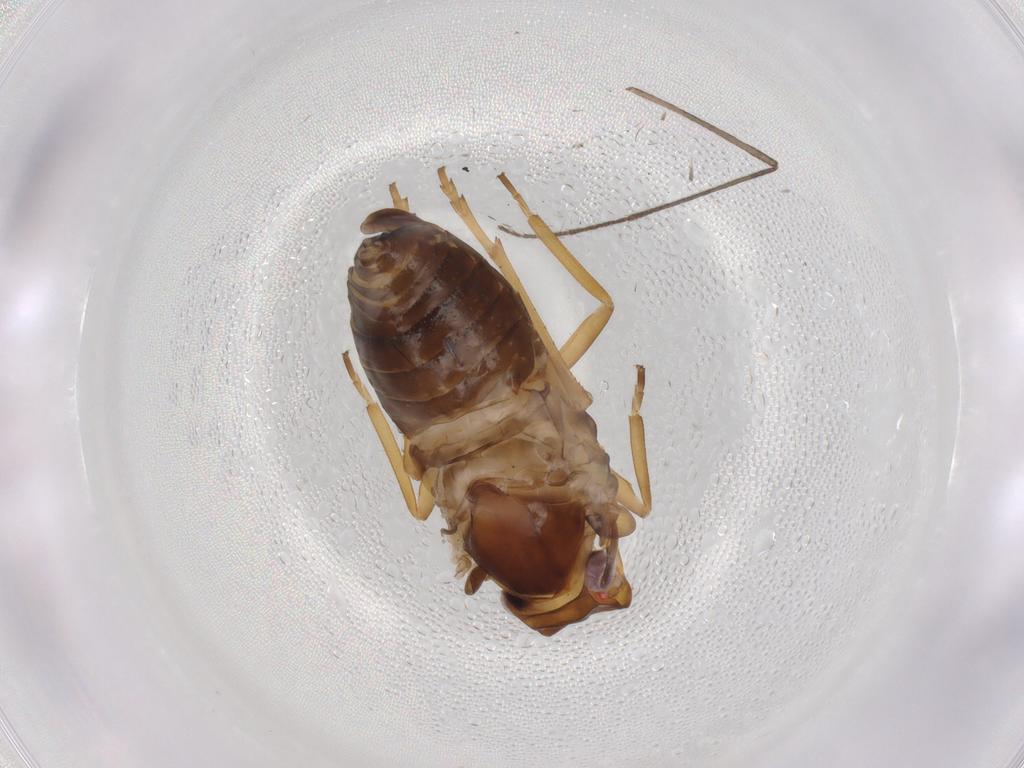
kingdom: Animalia
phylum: Arthropoda
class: Insecta
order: Hemiptera
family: Cixiidae
